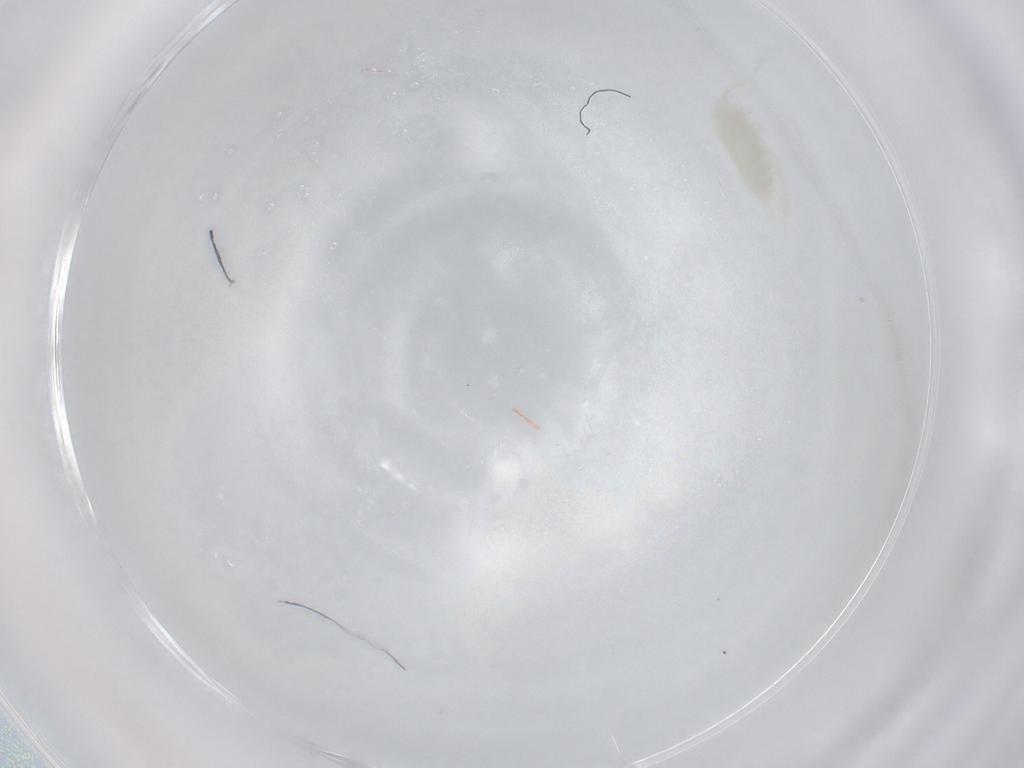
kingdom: Animalia
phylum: Arthropoda
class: Copepoda
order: Calanoida
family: Diaptomidae
